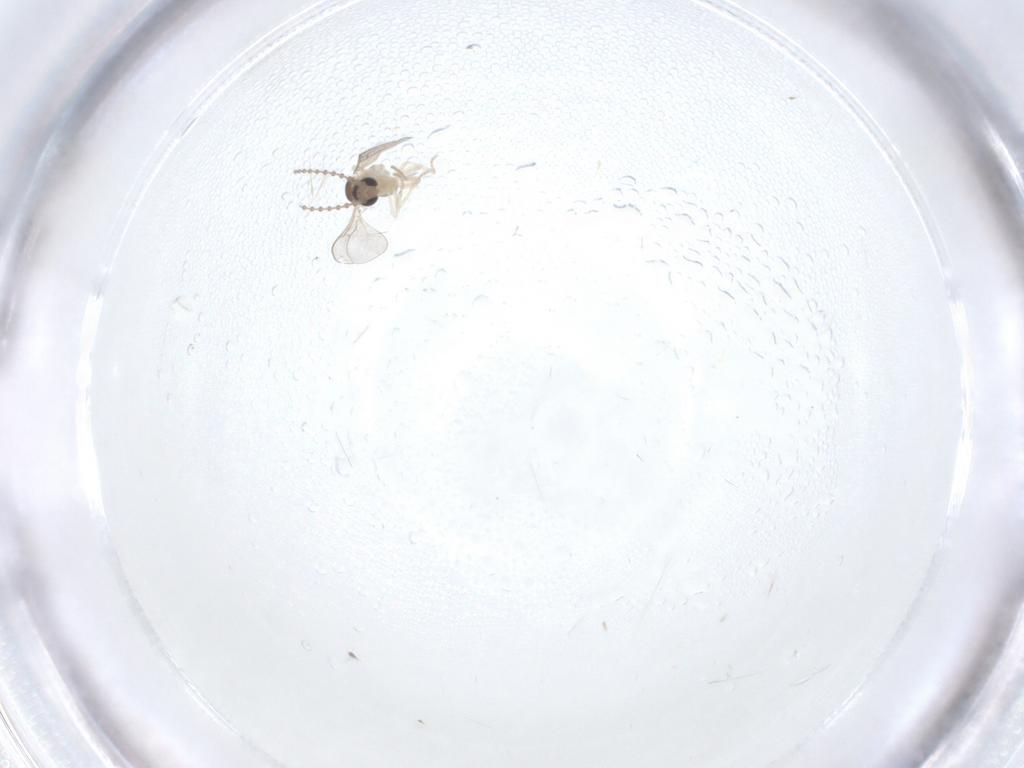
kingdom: Animalia
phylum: Arthropoda
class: Insecta
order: Diptera
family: Cecidomyiidae
